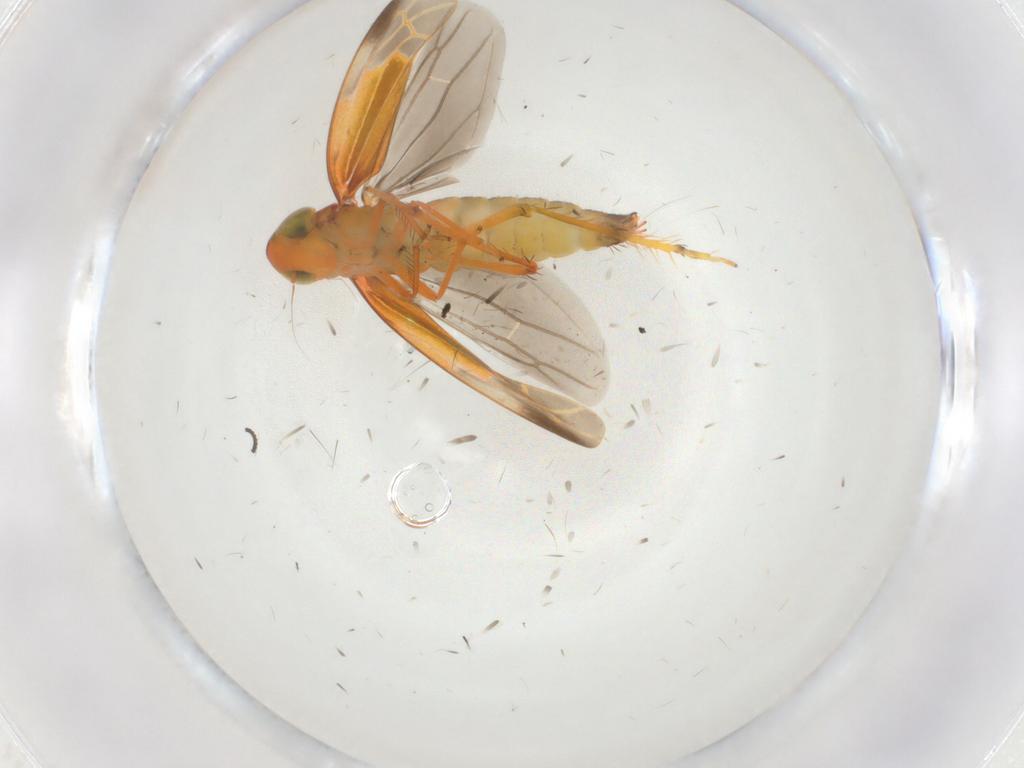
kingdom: Animalia
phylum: Arthropoda
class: Insecta
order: Hemiptera
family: Cicadellidae
